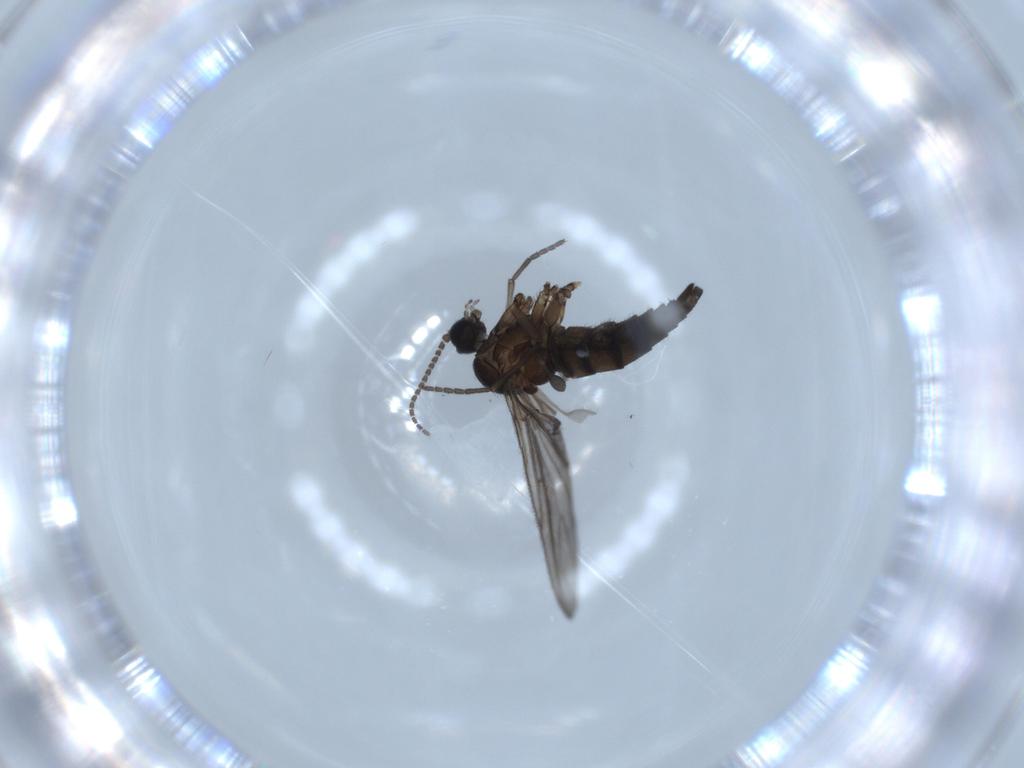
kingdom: Animalia
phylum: Arthropoda
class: Insecta
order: Diptera
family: Sciaridae
